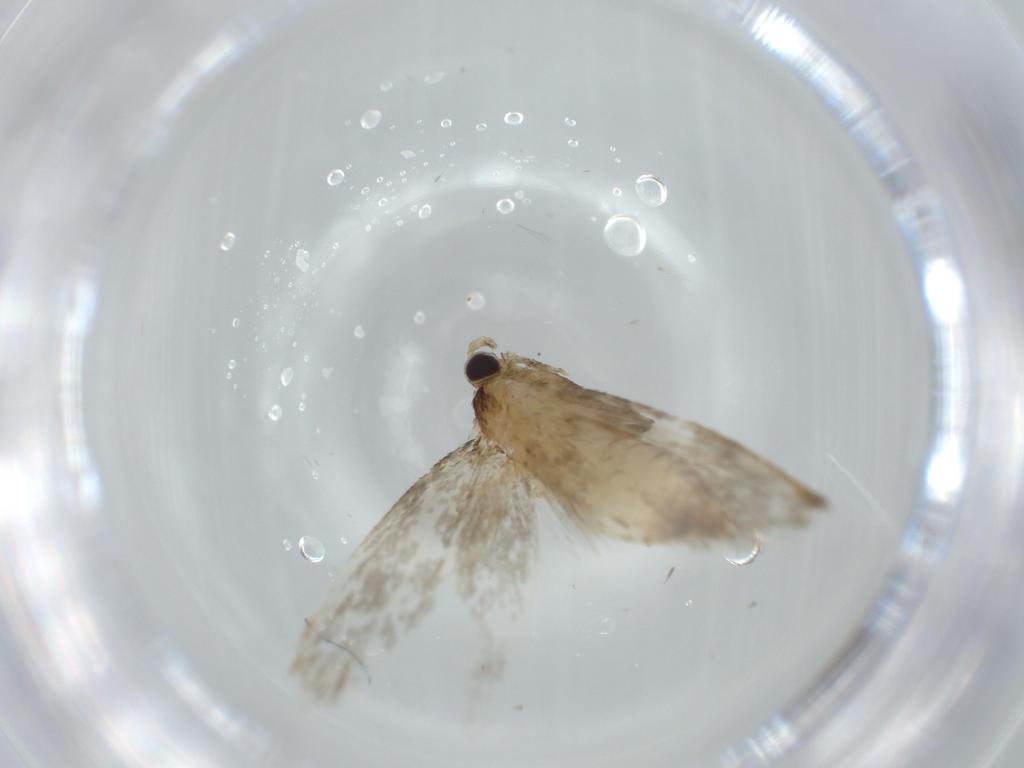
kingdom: Animalia
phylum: Arthropoda
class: Insecta
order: Lepidoptera
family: Tineidae
